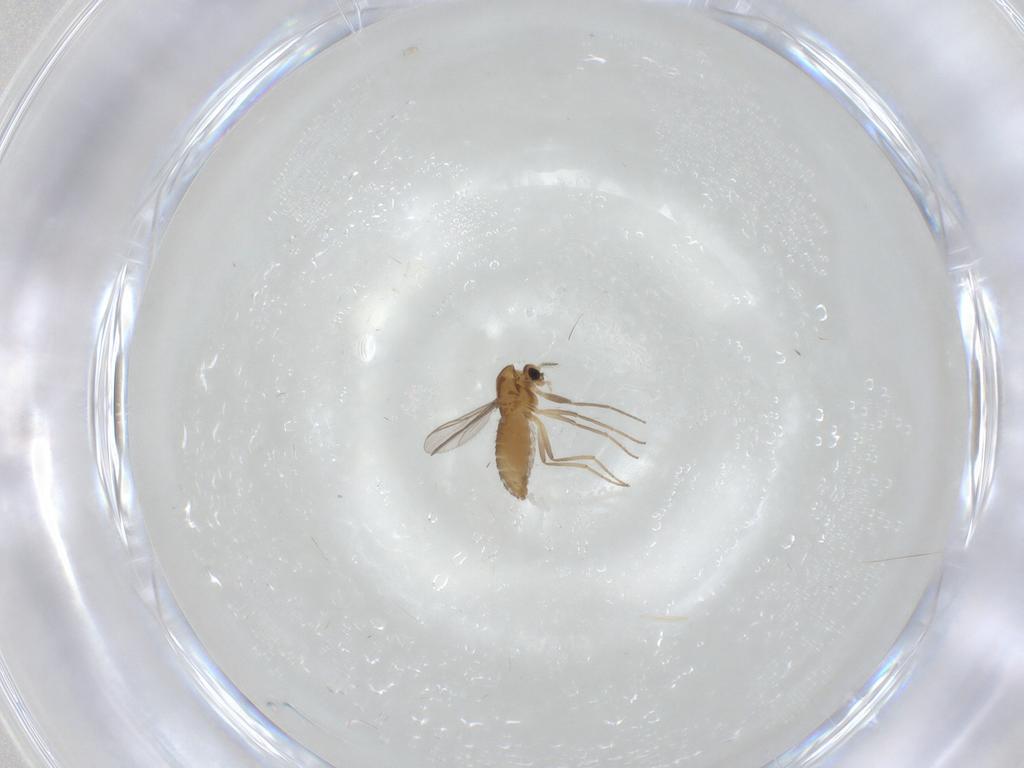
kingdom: Animalia
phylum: Arthropoda
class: Insecta
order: Diptera
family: Chironomidae
